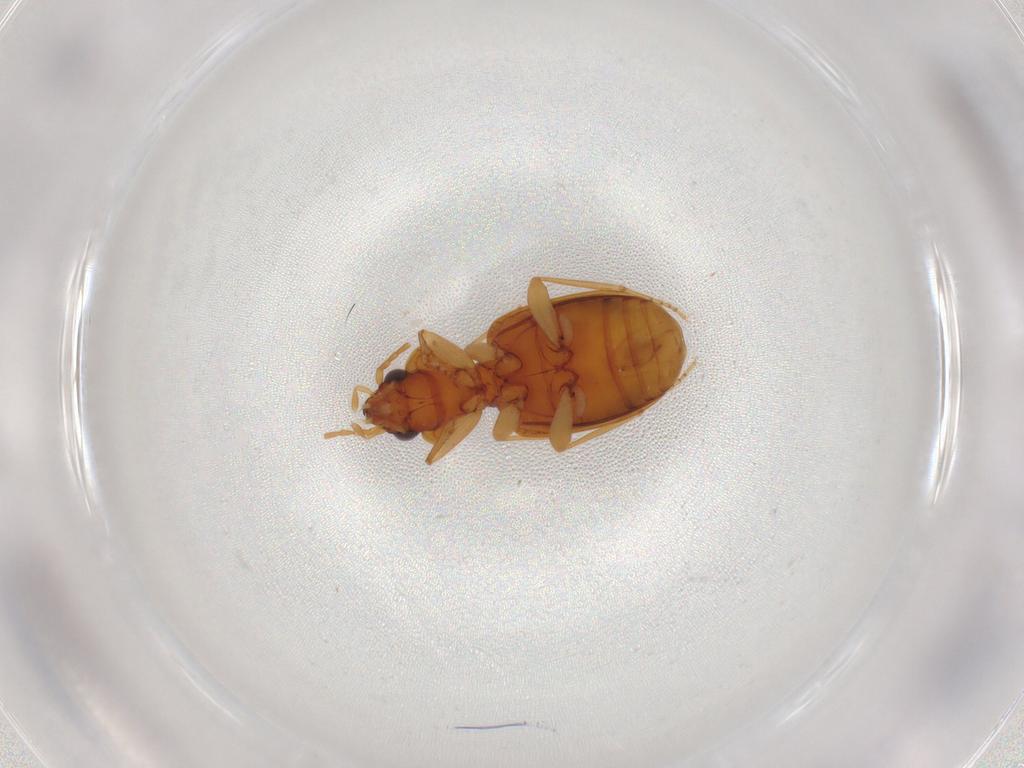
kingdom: Animalia
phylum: Arthropoda
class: Insecta
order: Coleoptera
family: Carabidae
